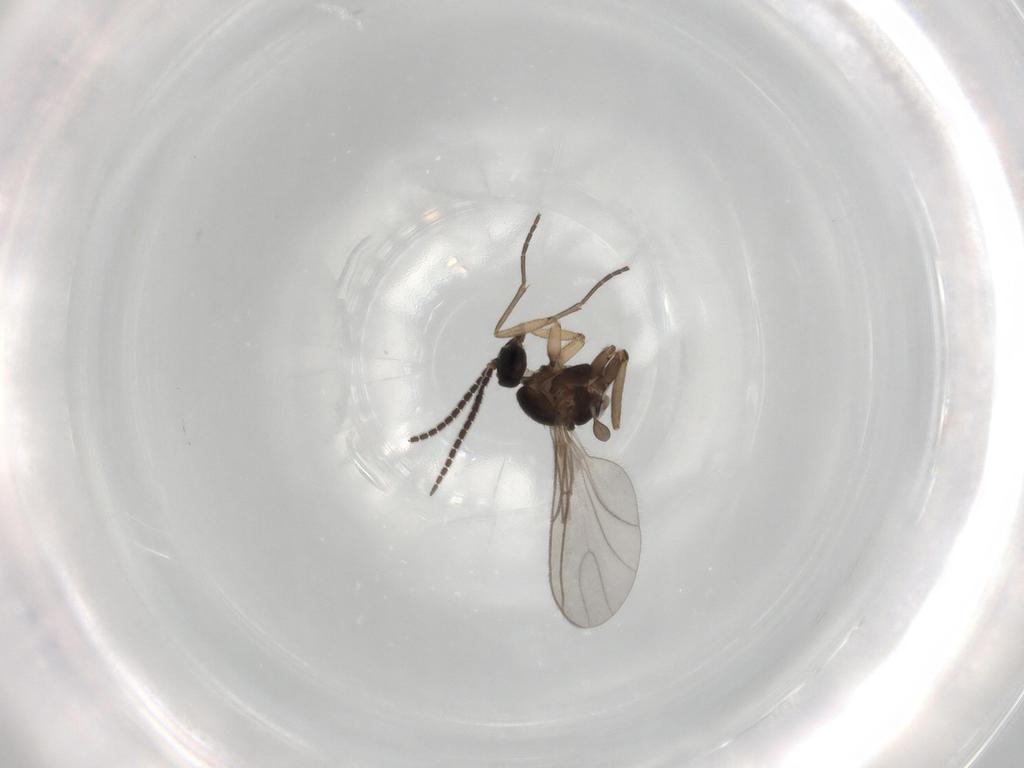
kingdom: Animalia
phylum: Arthropoda
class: Insecta
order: Diptera
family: Sciaridae
